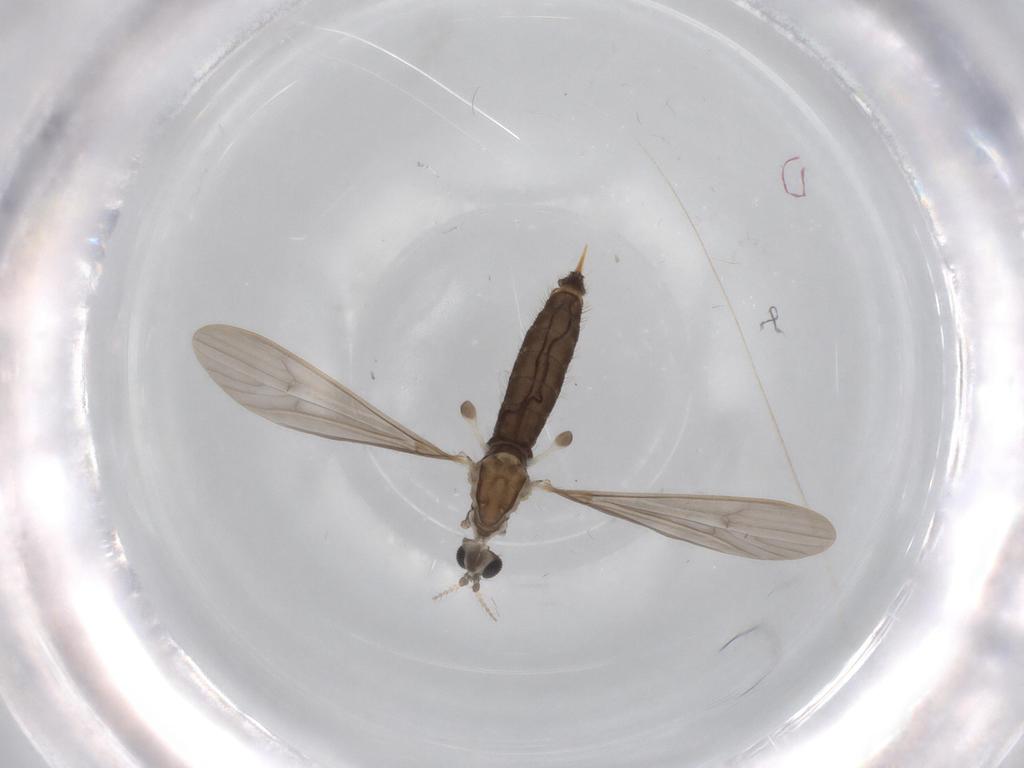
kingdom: Animalia
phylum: Arthropoda
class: Insecta
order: Diptera
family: Limoniidae
